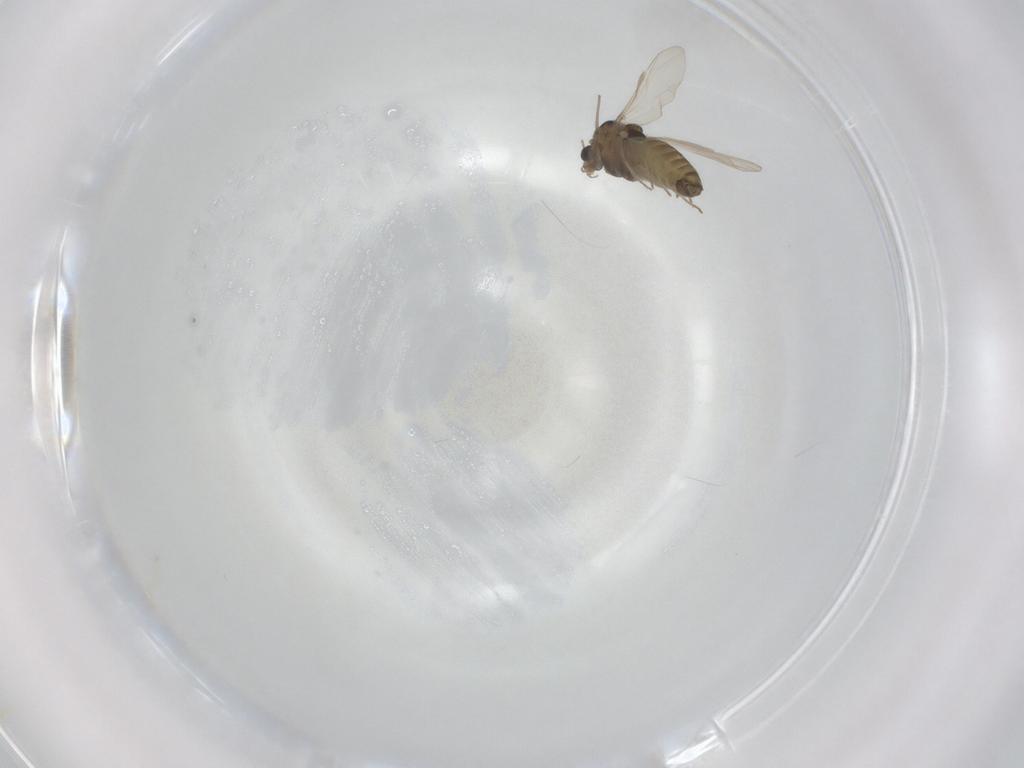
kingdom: Animalia
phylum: Arthropoda
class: Insecta
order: Diptera
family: Chironomidae
